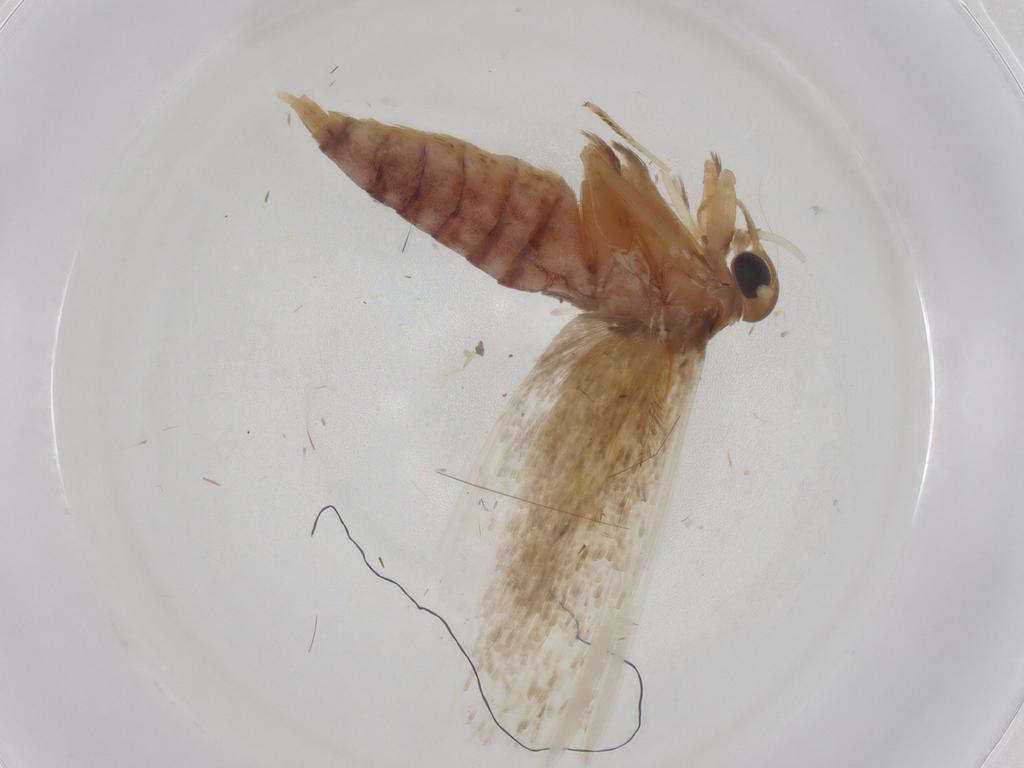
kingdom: Animalia
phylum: Arthropoda
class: Insecta
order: Lepidoptera
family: Blastobasidae
